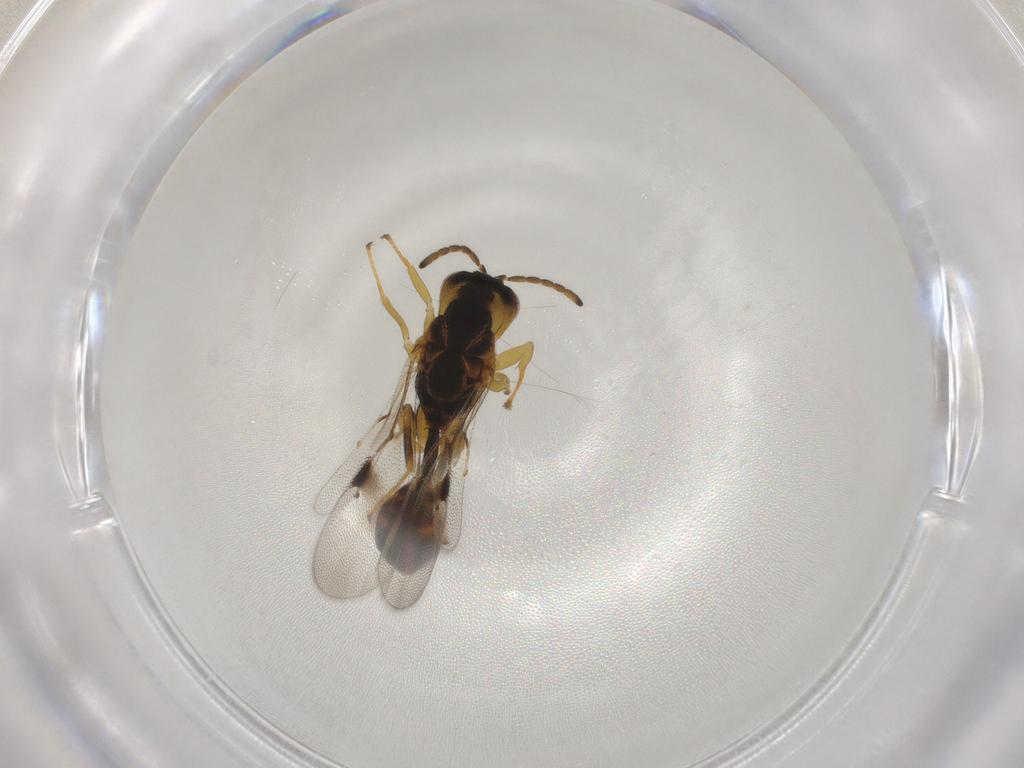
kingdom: Animalia
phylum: Arthropoda
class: Insecta
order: Hymenoptera
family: Eurytomidae
